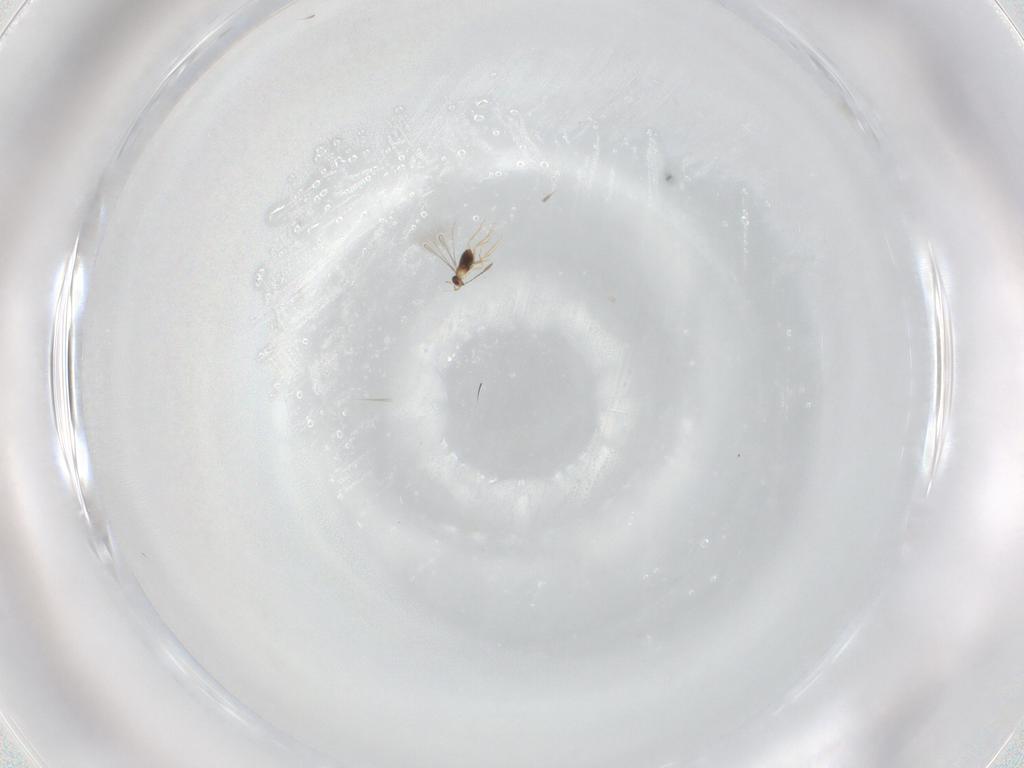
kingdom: Animalia
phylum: Arthropoda
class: Insecta
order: Hymenoptera
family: Mymaridae
